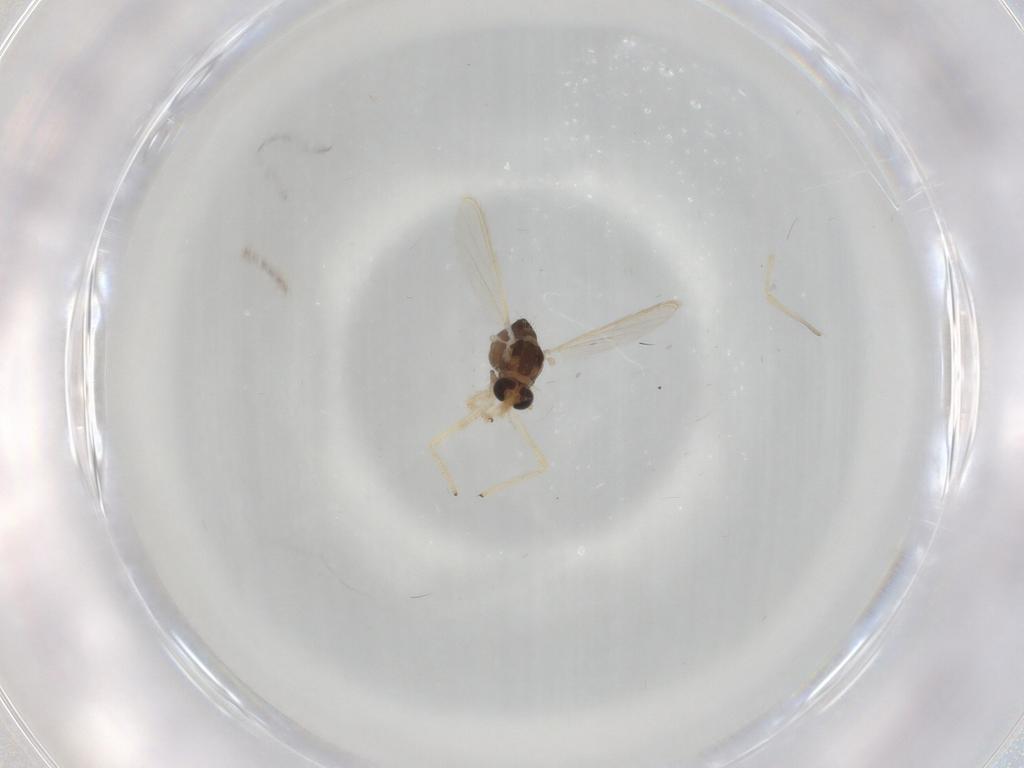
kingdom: Animalia
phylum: Arthropoda
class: Insecta
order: Diptera
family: Chironomidae
